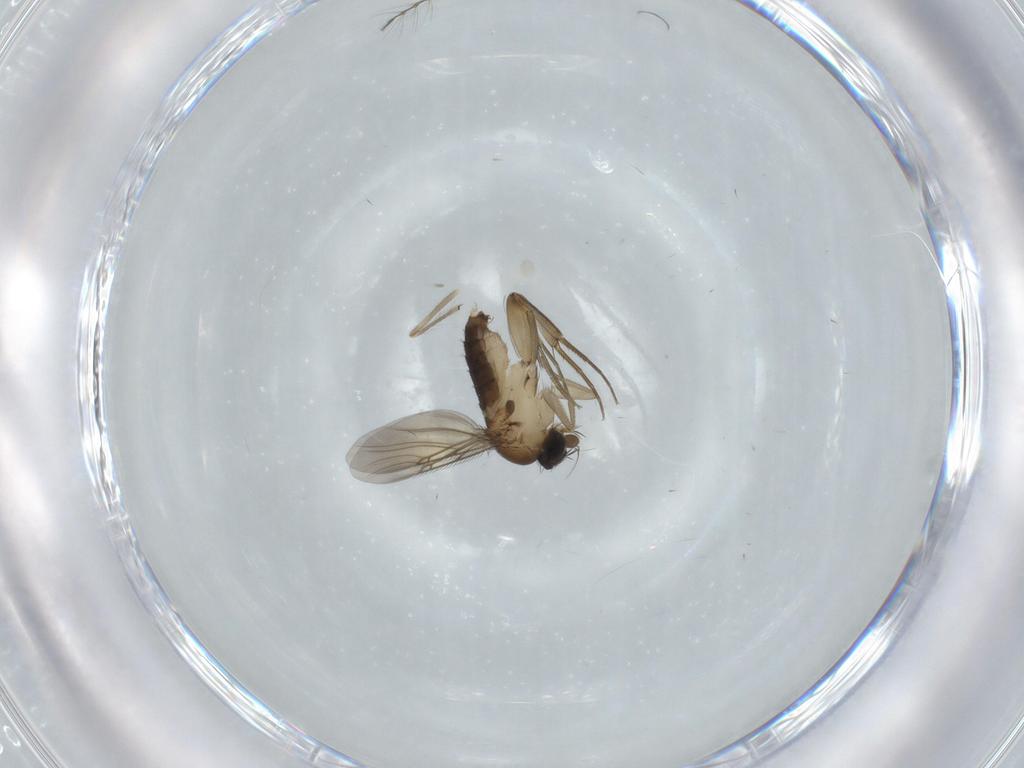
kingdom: Animalia
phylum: Arthropoda
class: Insecta
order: Diptera
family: Phoridae
